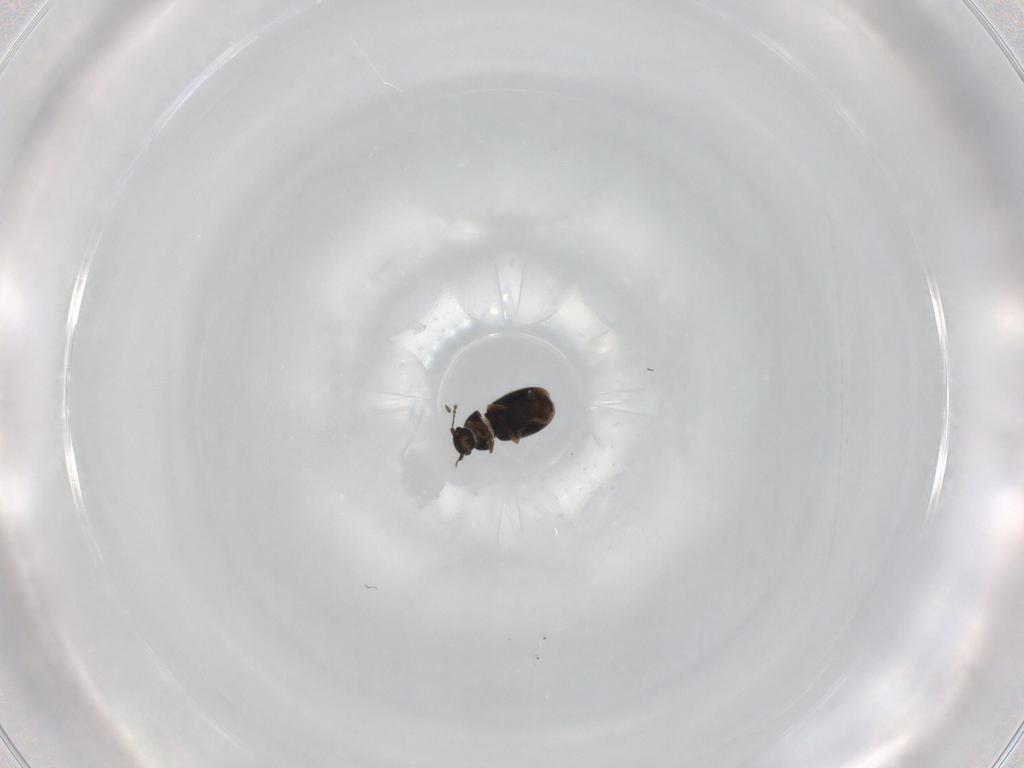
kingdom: Animalia
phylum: Arthropoda
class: Insecta
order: Coleoptera
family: Ptiliidae
